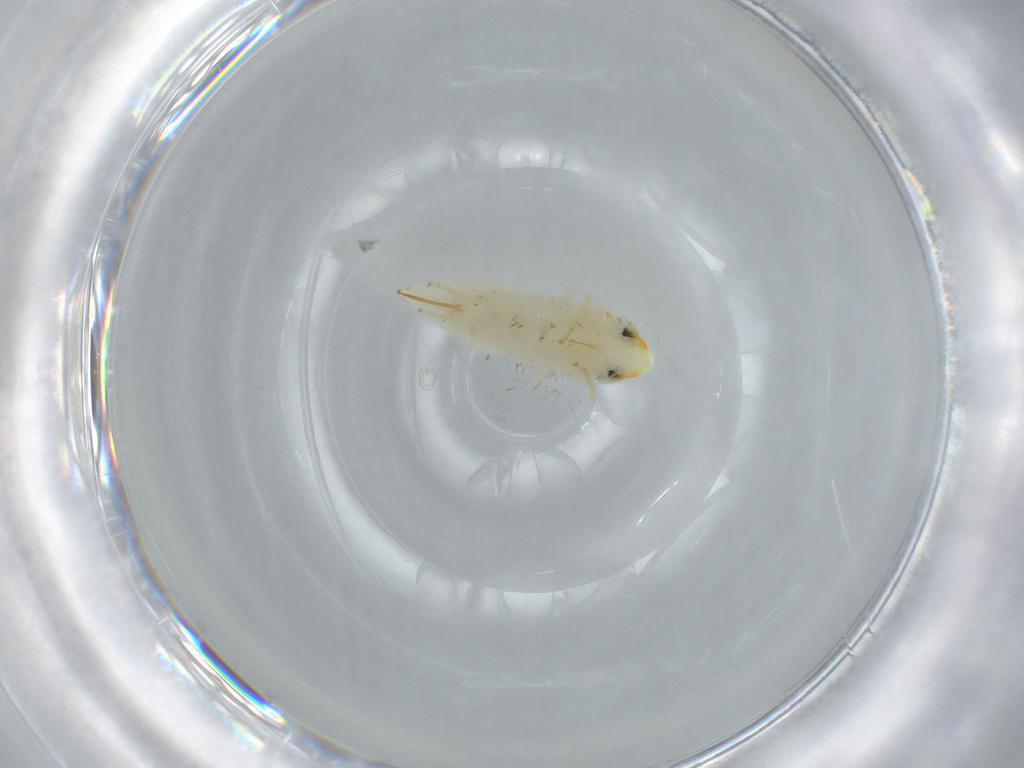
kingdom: Animalia
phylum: Arthropoda
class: Insecta
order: Hemiptera
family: Cicadellidae
